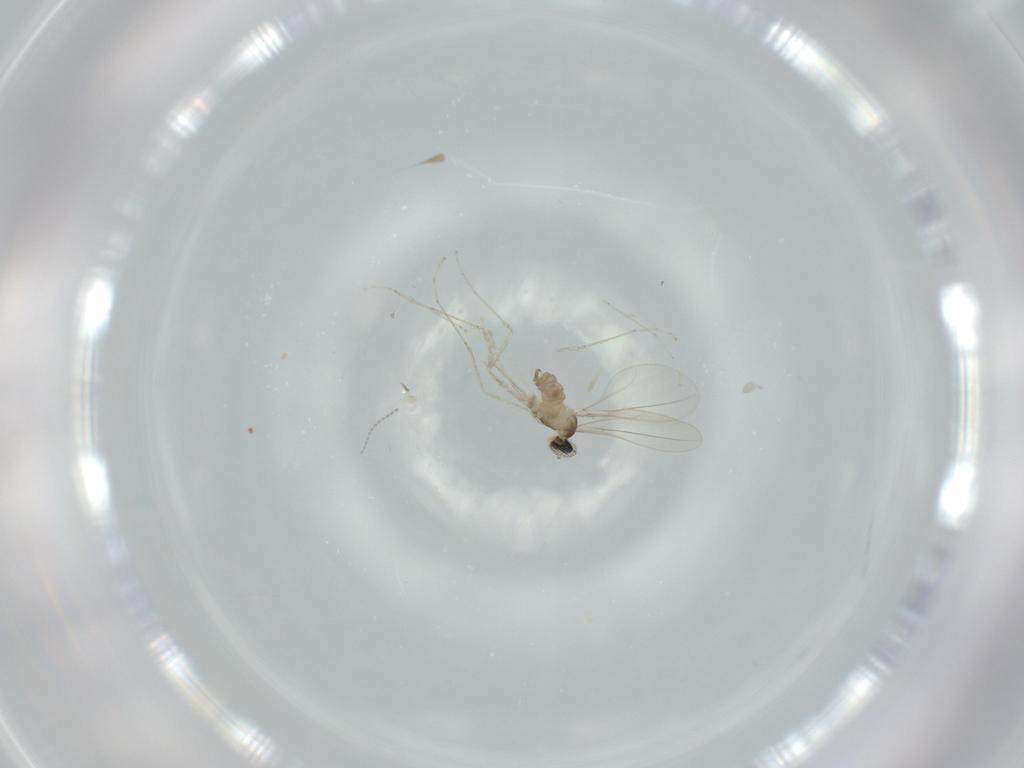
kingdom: Animalia
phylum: Arthropoda
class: Insecta
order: Diptera
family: Cecidomyiidae
